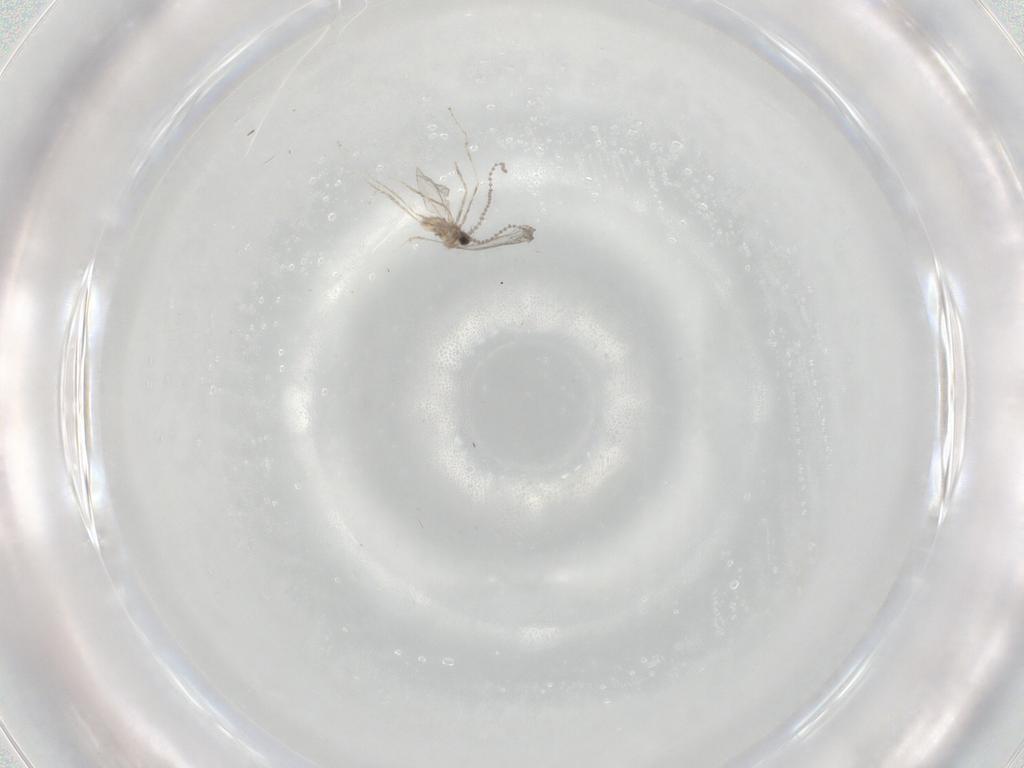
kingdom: Animalia
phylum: Arthropoda
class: Insecta
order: Diptera
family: Cecidomyiidae
